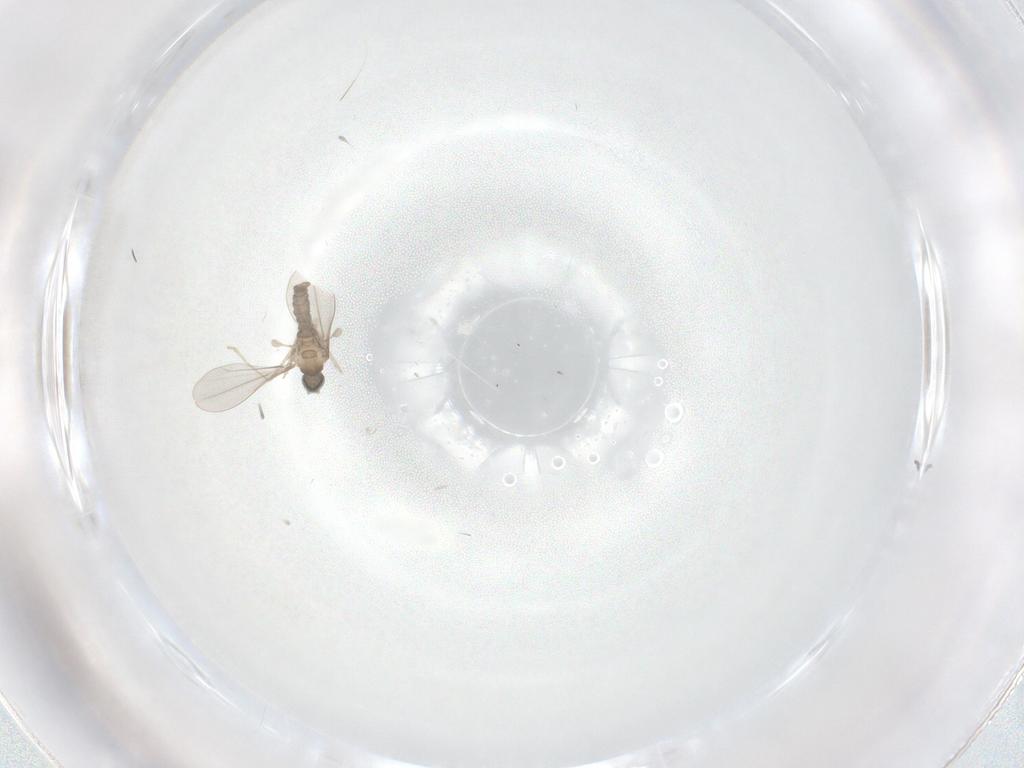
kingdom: Animalia
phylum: Arthropoda
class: Insecta
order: Diptera
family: Cecidomyiidae
